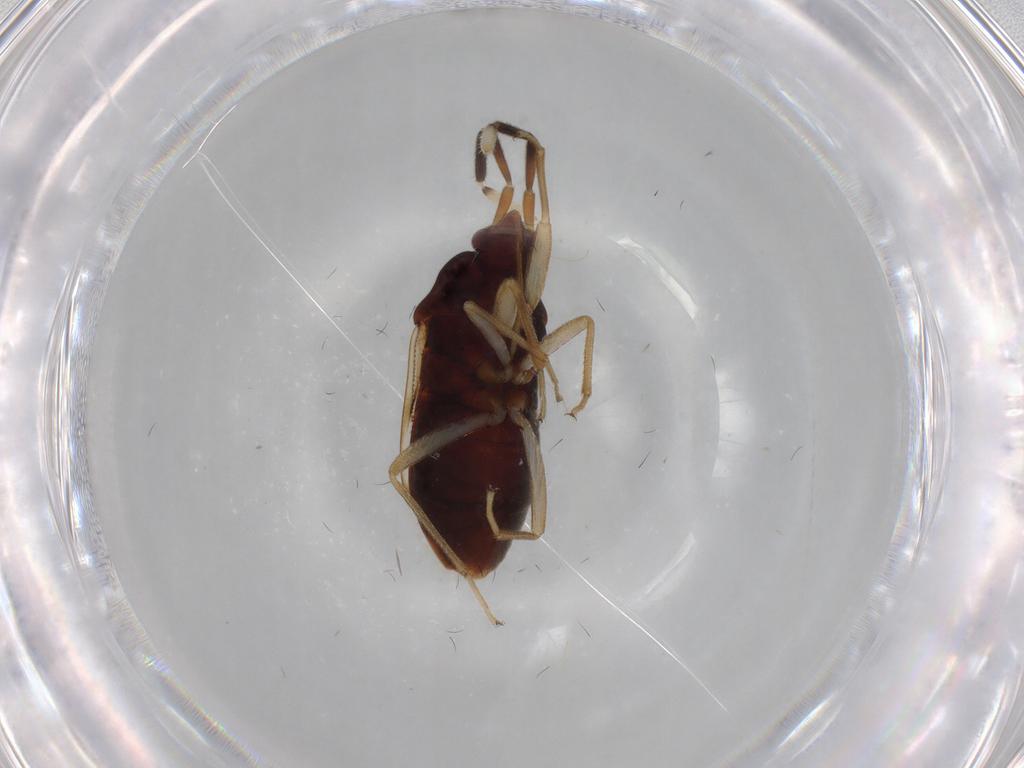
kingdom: Animalia
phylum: Arthropoda
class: Insecta
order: Hemiptera
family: Rhyparochromidae
